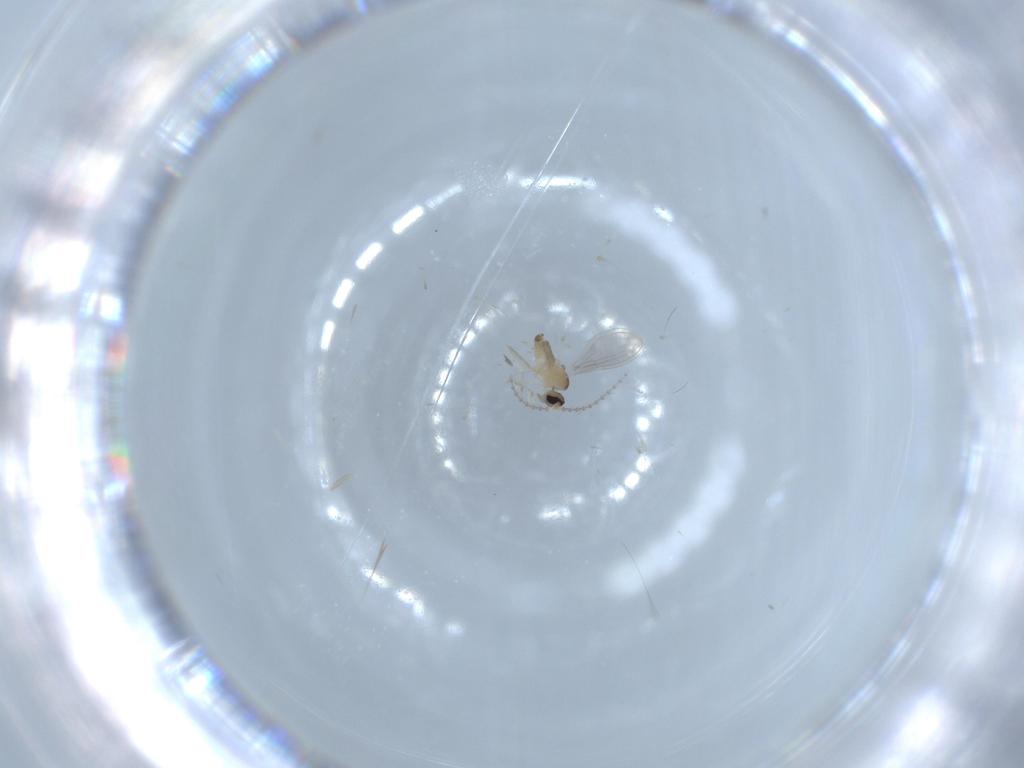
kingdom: Animalia
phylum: Arthropoda
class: Insecta
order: Diptera
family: Cecidomyiidae
